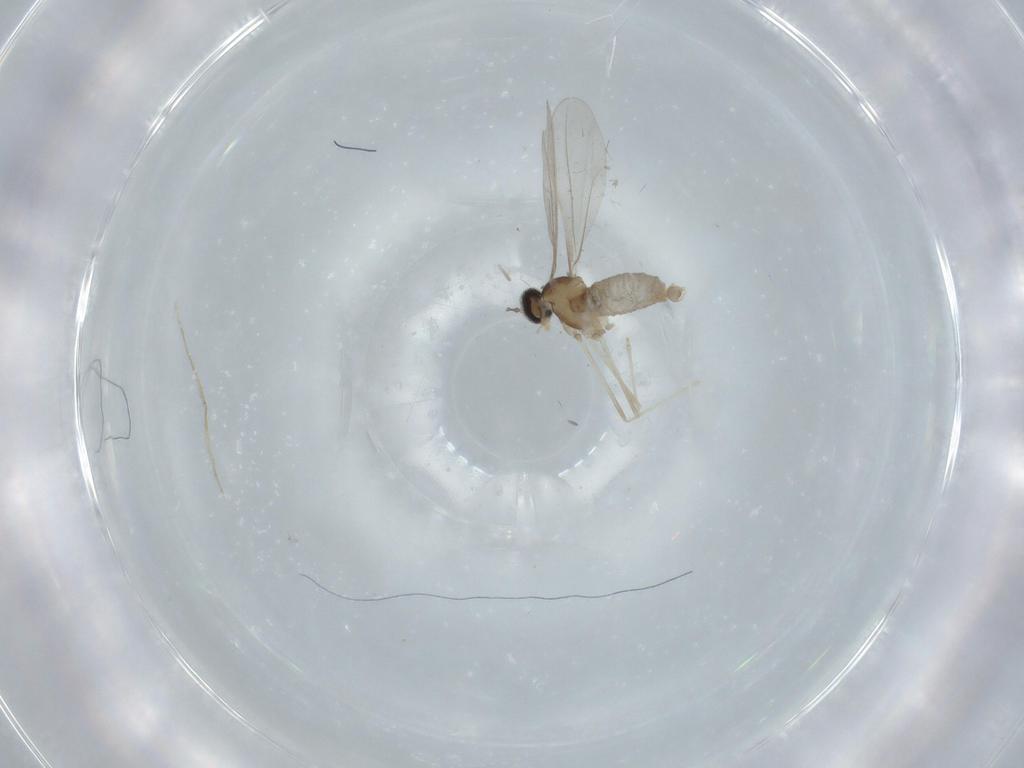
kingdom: Animalia
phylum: Arthropoda
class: Insecta
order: Diptera
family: Cecidomyiidae
